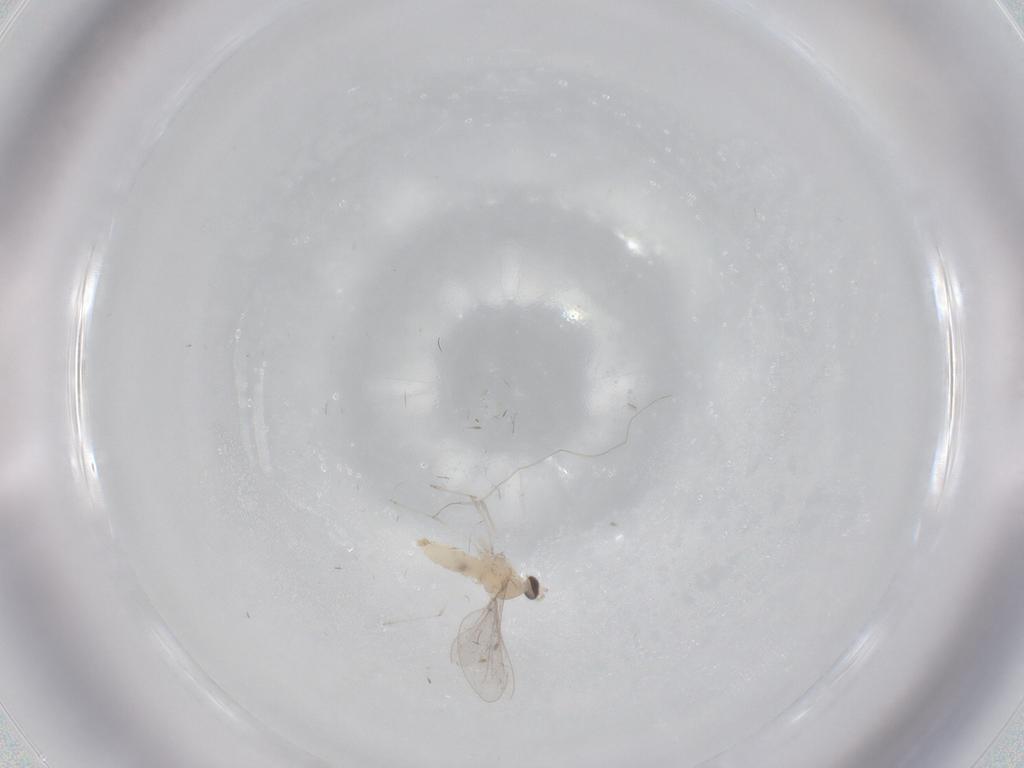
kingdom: Animalia
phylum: Arthropoda
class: Insecta
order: Diptera
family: Cecidomyiidae
